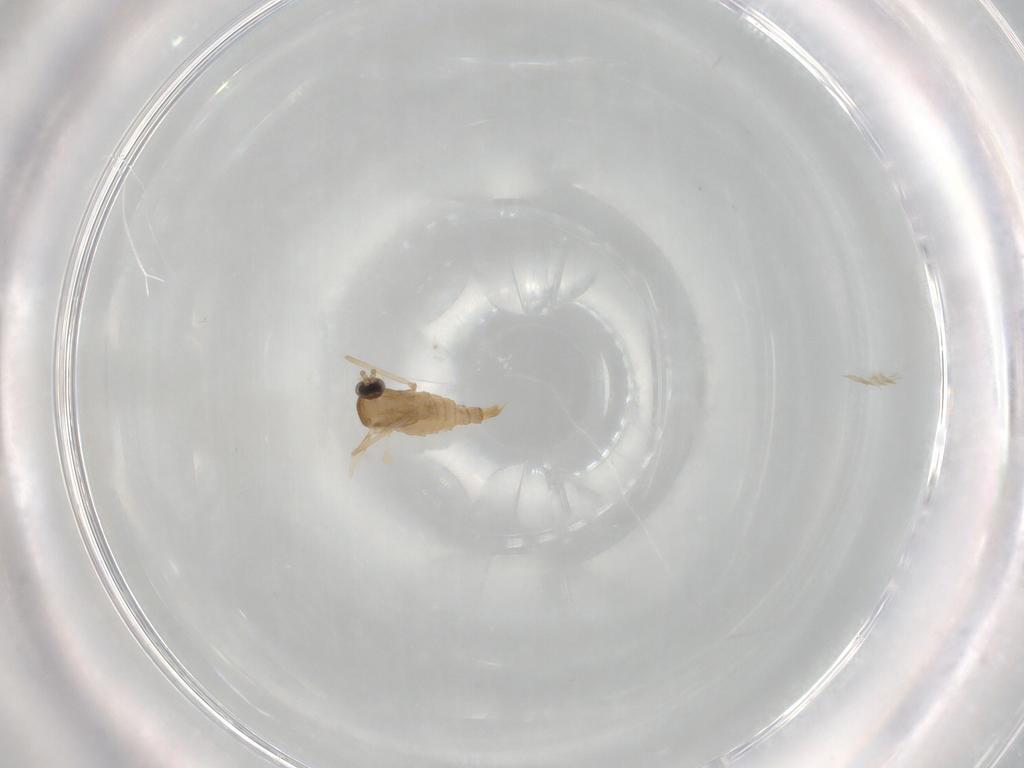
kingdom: Animalia
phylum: Arthropoda
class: Insecta
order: Diptera
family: Muscidae
